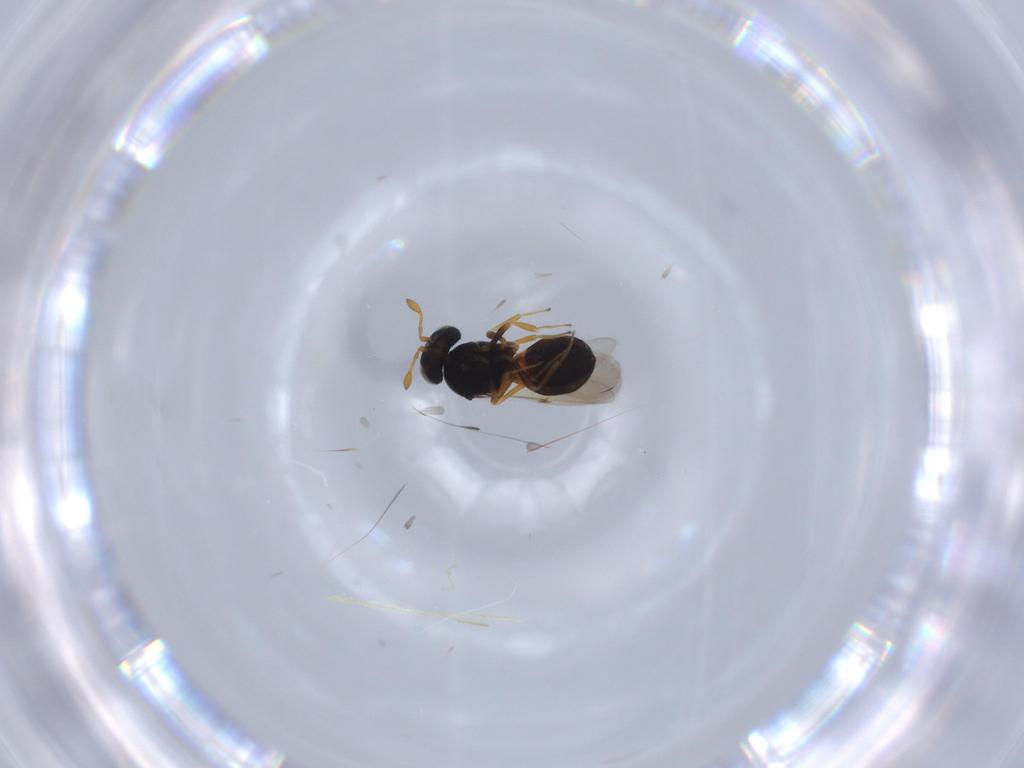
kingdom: Animalia
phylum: Arthropoda
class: Insecta
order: Hymenoptera
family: Scelionidae
